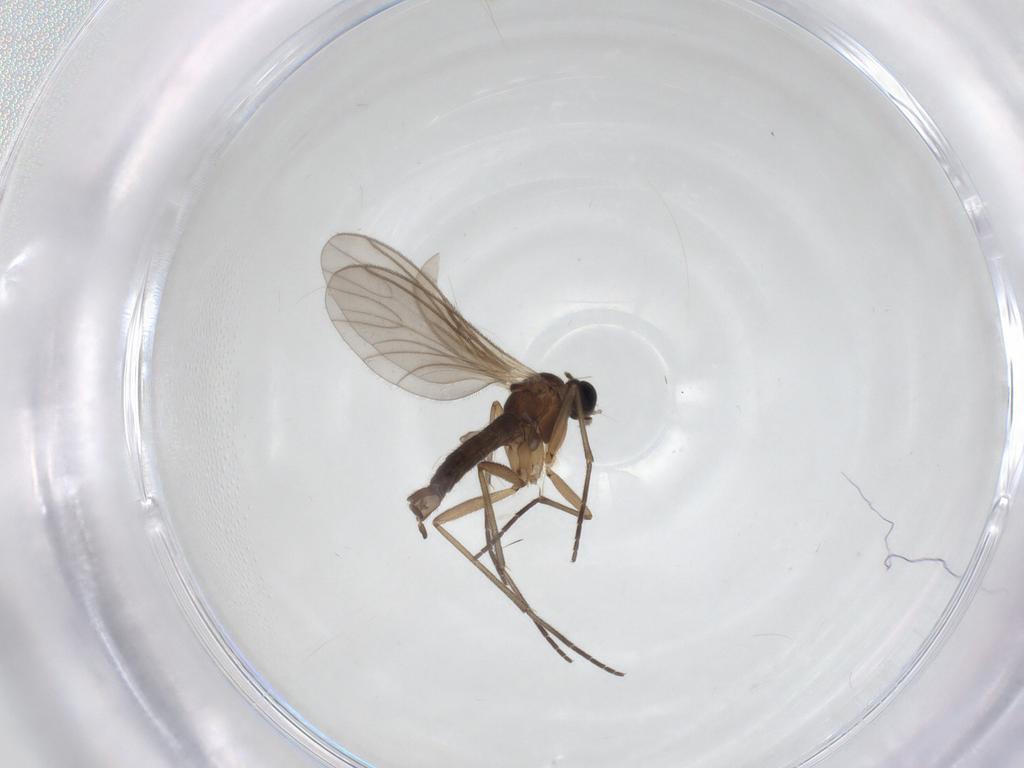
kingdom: Animalia
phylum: Arthropoda
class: Insecta
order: Diptera
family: Sciaridae
